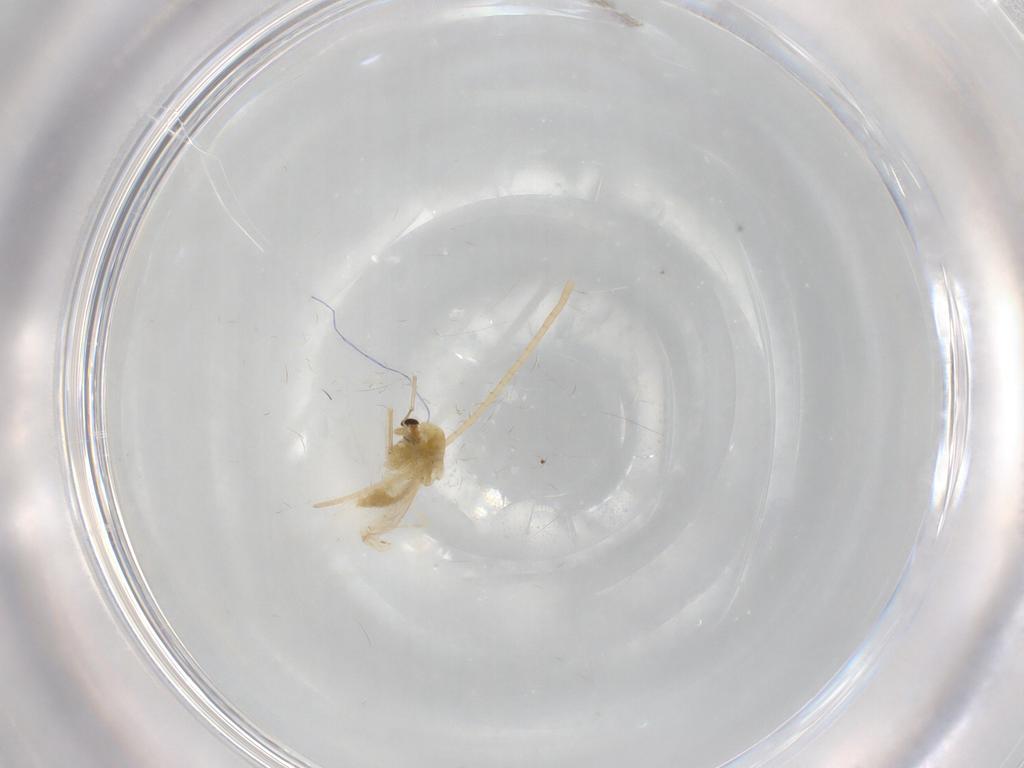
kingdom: Animalia
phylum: Arthropoda
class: Insecta
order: Diptera
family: Chironomidae
